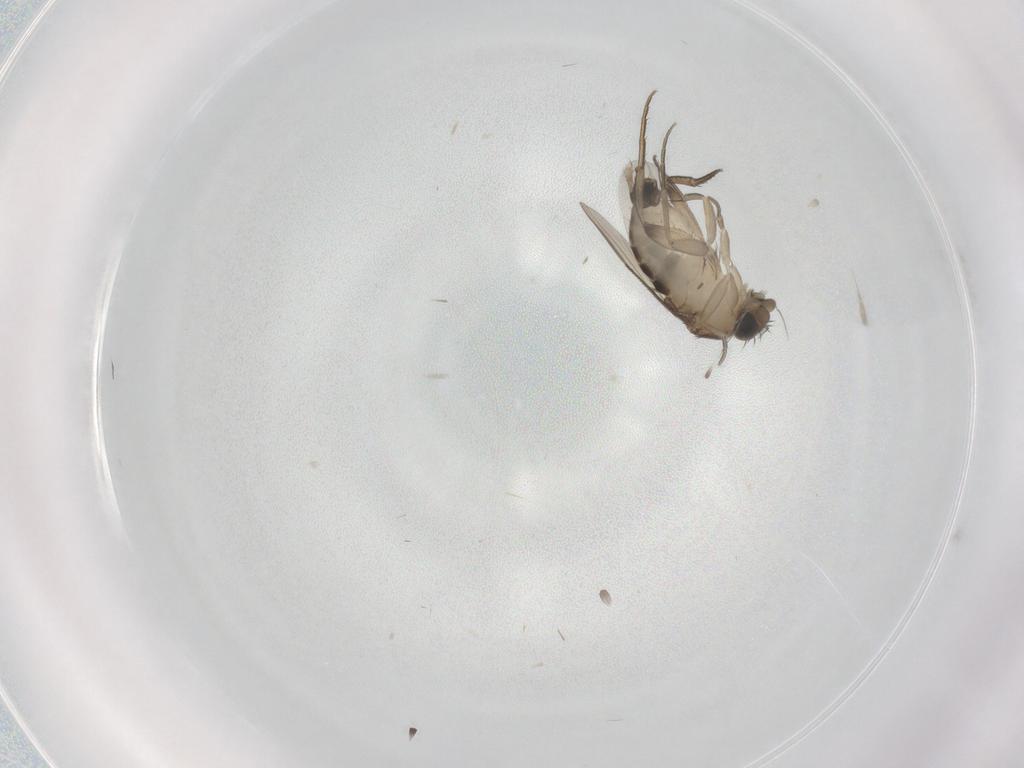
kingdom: Animalia
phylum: Arthropoda
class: Insecta
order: Diptera
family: Phoridae
